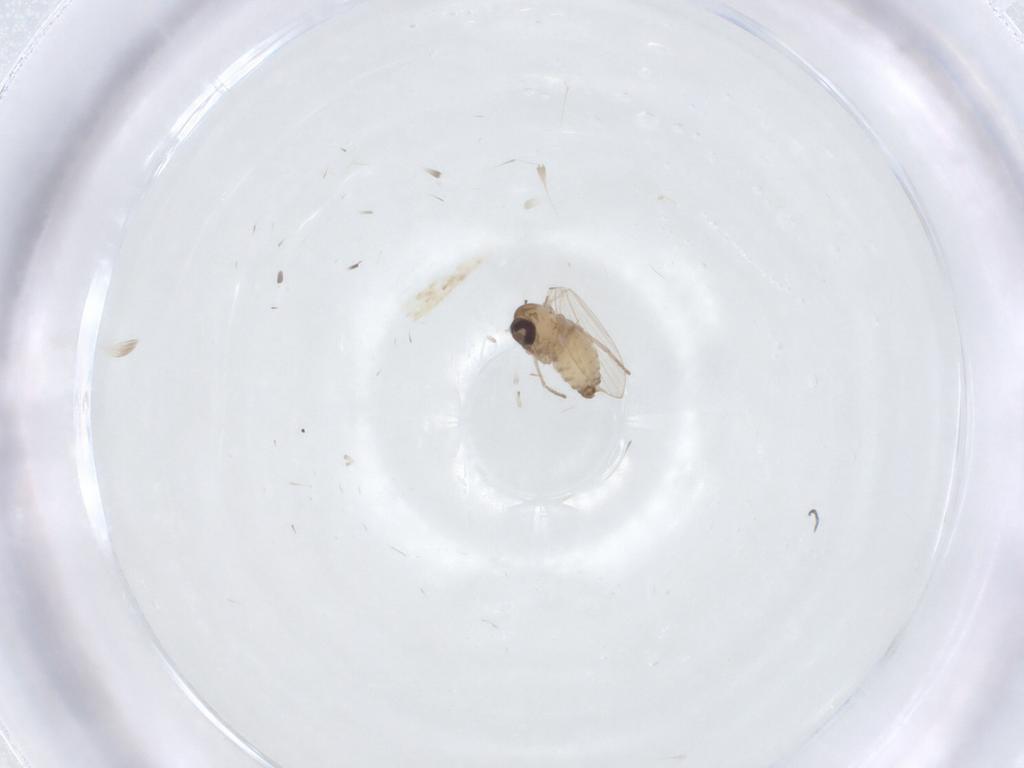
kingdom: Animalia
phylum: Arthropoda
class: Insecta
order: Diptera
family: Psychodidae
